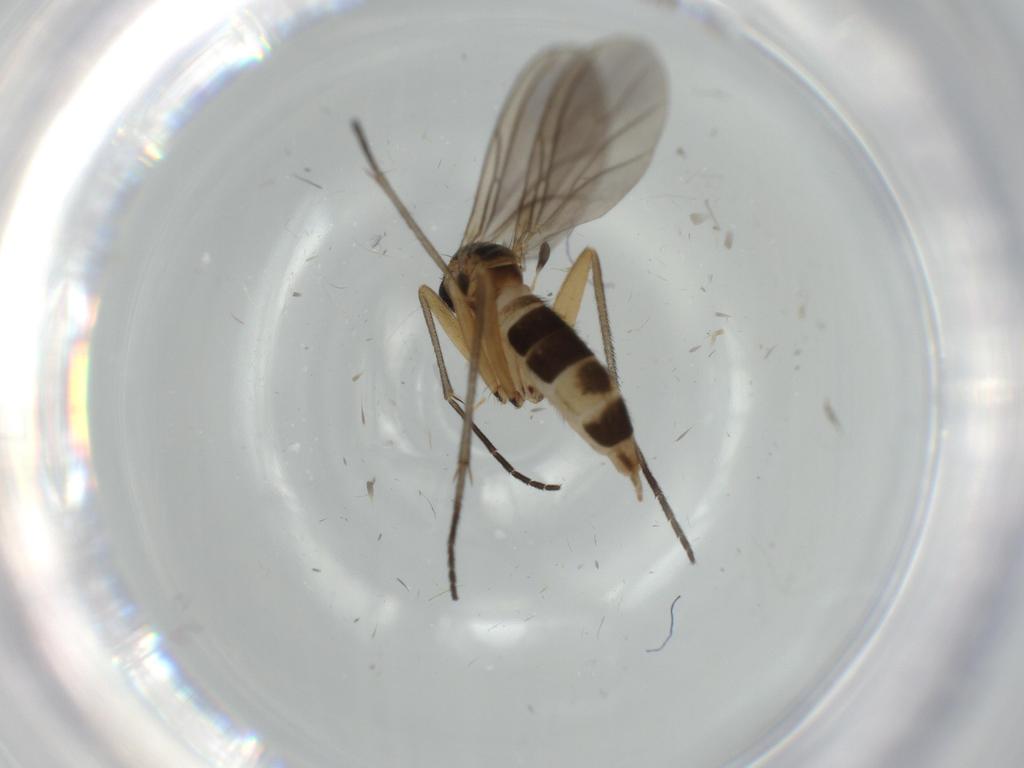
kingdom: Animalia
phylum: Arthropoda
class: Insecta
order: Diptera
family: Sciaridae
